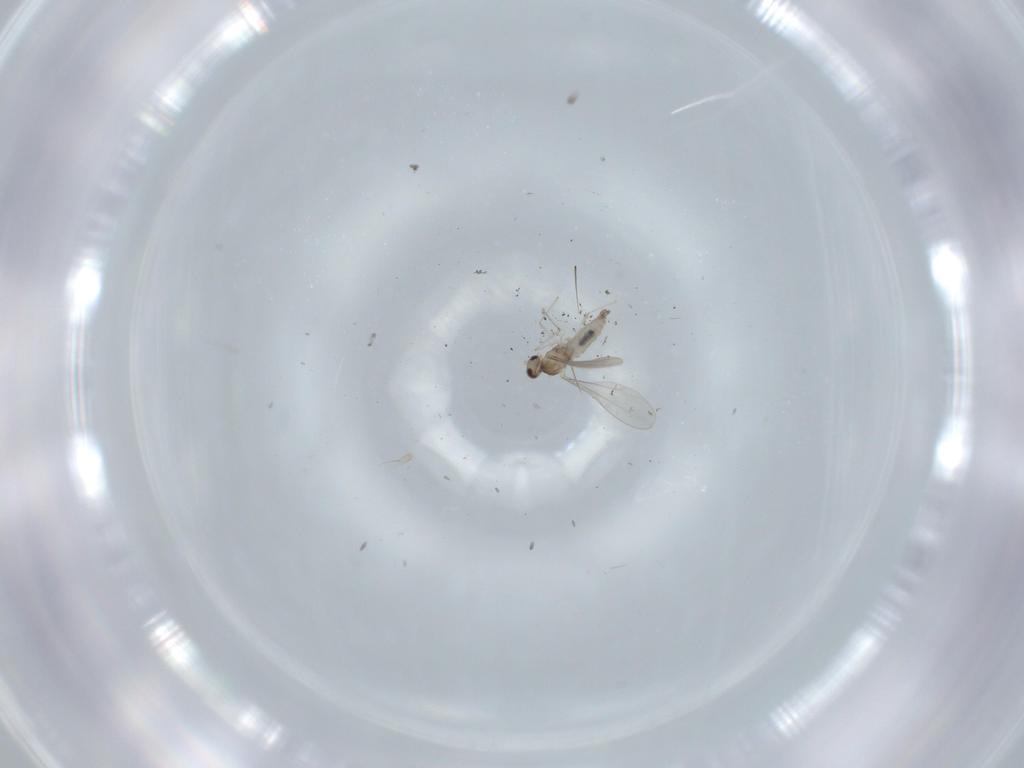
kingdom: Animalia
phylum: Arthropoda
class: Insecta
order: Diptera
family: Cecidomyiidae
